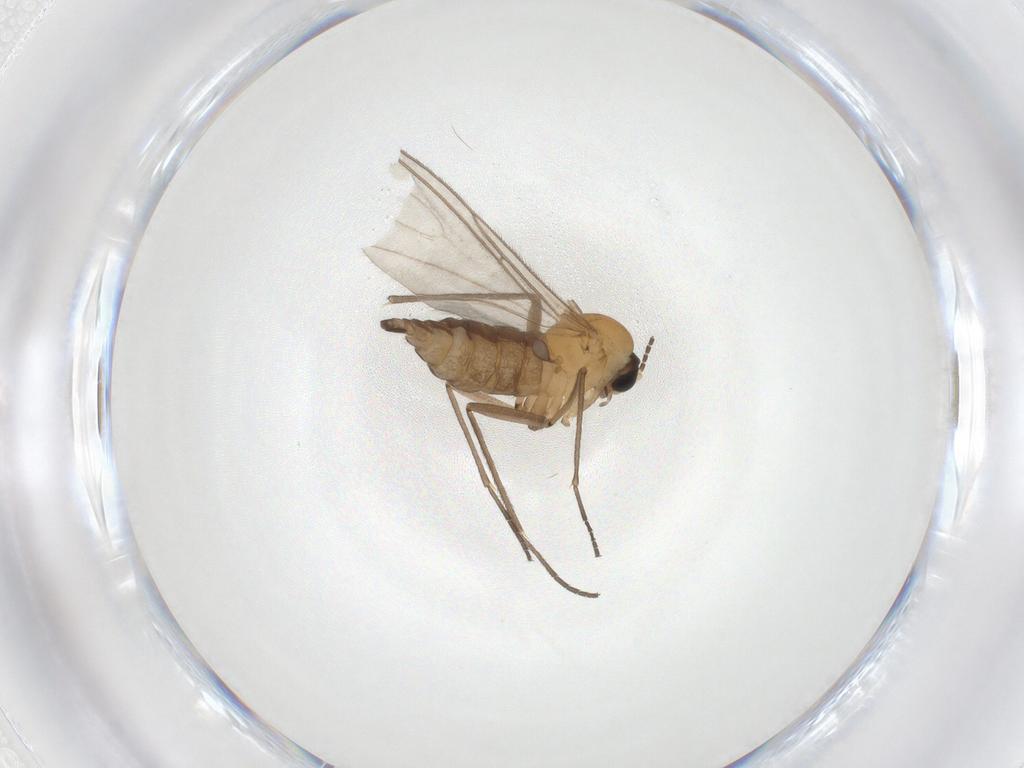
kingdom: Animalia
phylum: Arthropoda
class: Insecta
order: Diptera
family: Sciaridae
